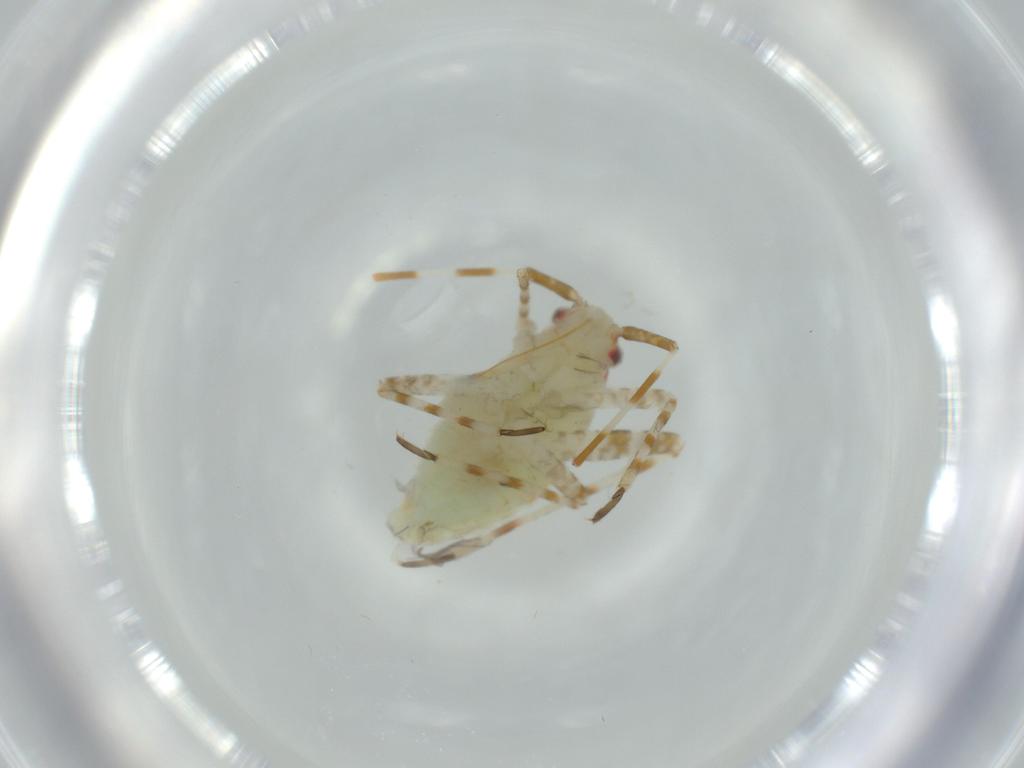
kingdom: Animalia
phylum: Arthropoda
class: Insecta
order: Hemiptera
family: Miridae
